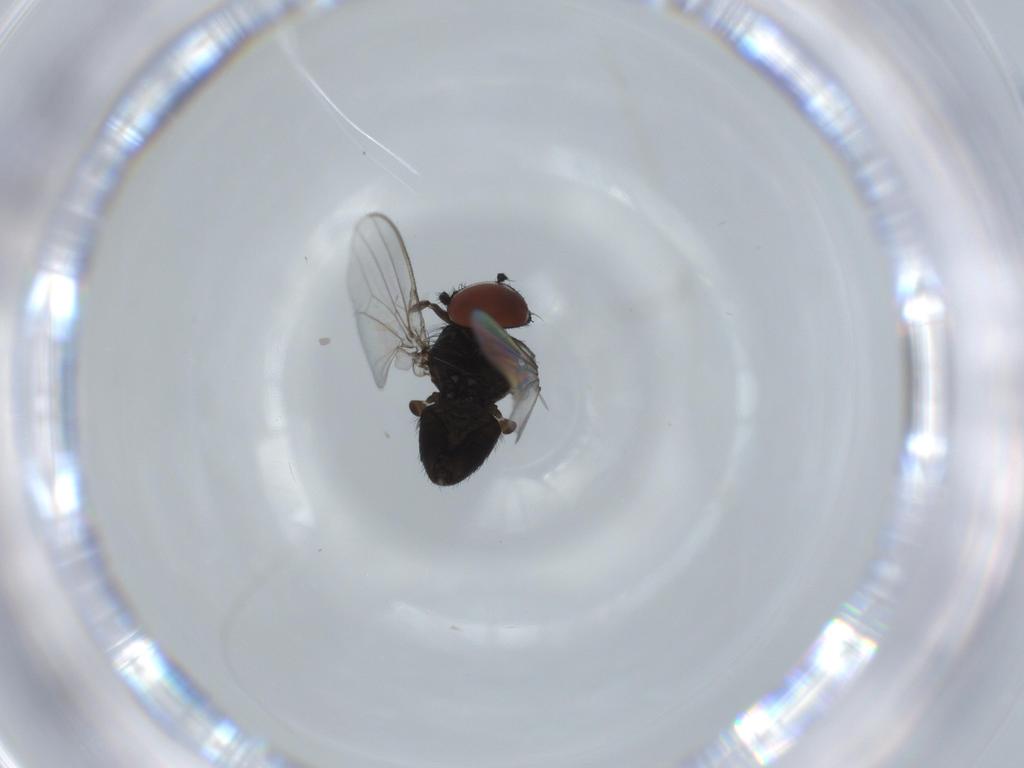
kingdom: Animalia
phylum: Arthropoda
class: Insecta
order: Diptera
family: Milichiidae
